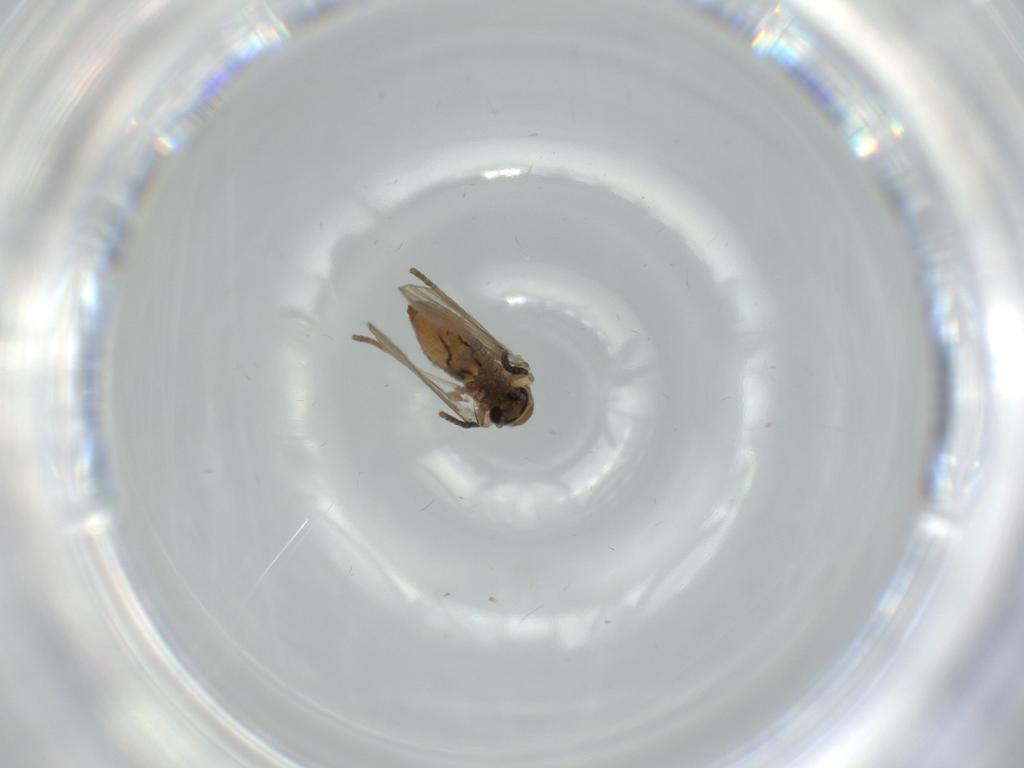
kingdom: Animalia
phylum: Arthropoda
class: Insecta
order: Diptera
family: Psychodidae
